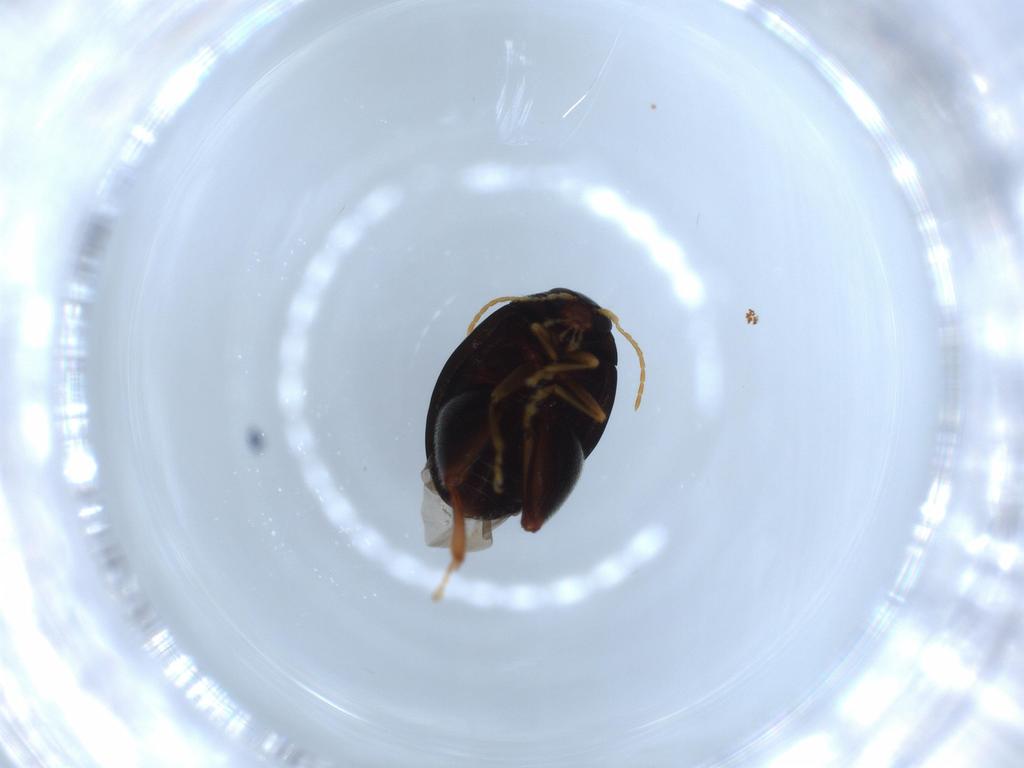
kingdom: Animalia
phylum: Arthropoda
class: Insecta
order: Coleoptera
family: Chrysomelidae
